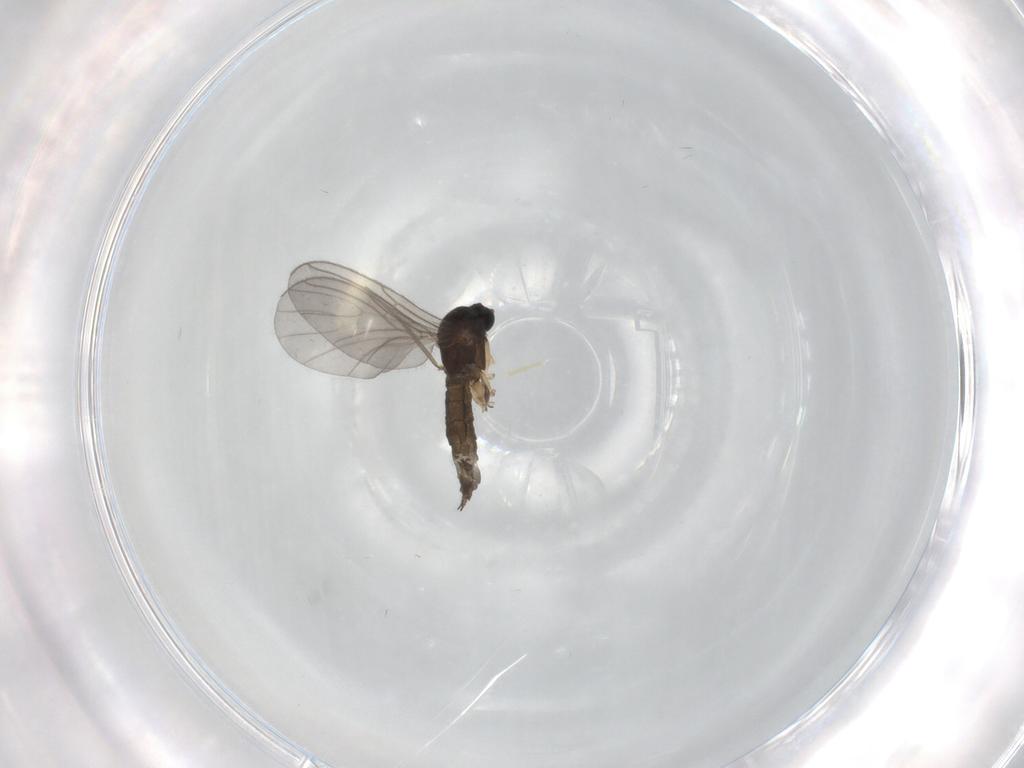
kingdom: Animalia
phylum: Arthropoda
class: Insecta
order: Diptera
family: Sciaridae
